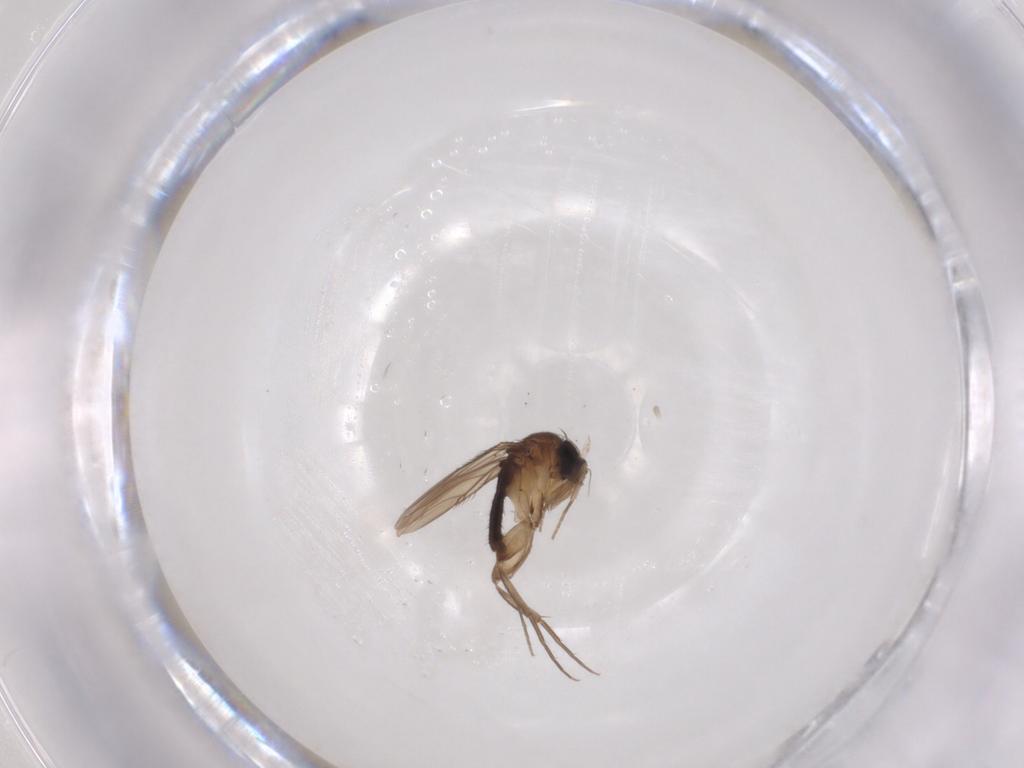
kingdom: Animalia
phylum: Arthropoda
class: Insecta
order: Diptera
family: Phoridae
